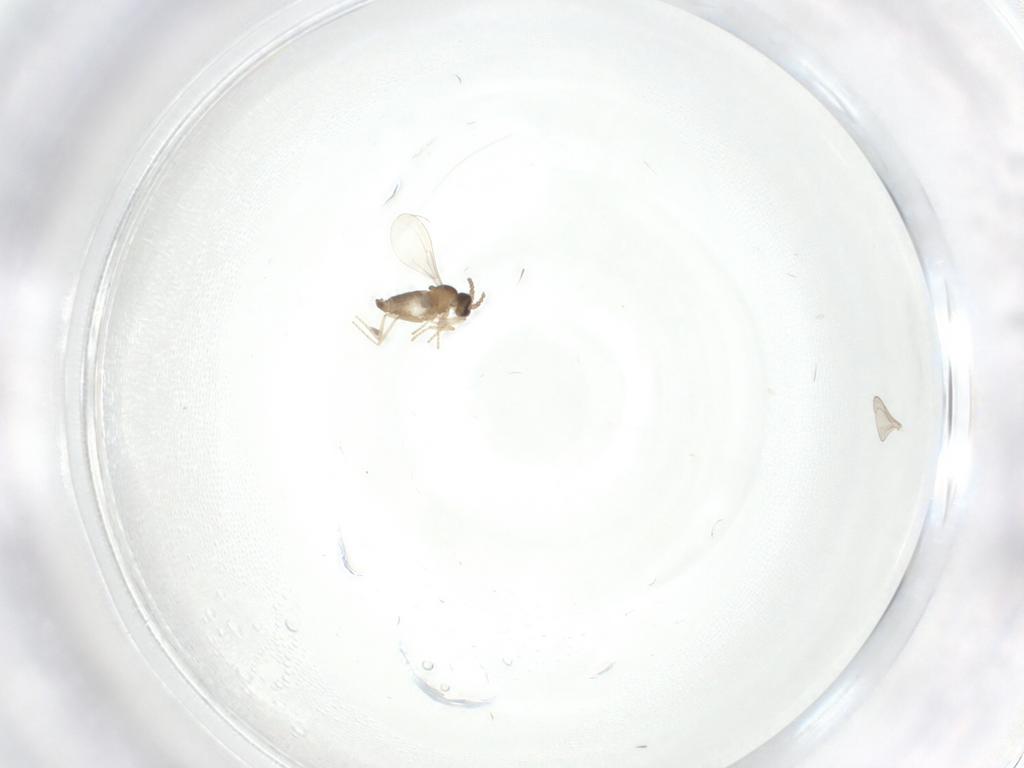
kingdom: Animalia
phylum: Arthropoda
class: Insecta
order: Diptera
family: Cecidomyiidae
